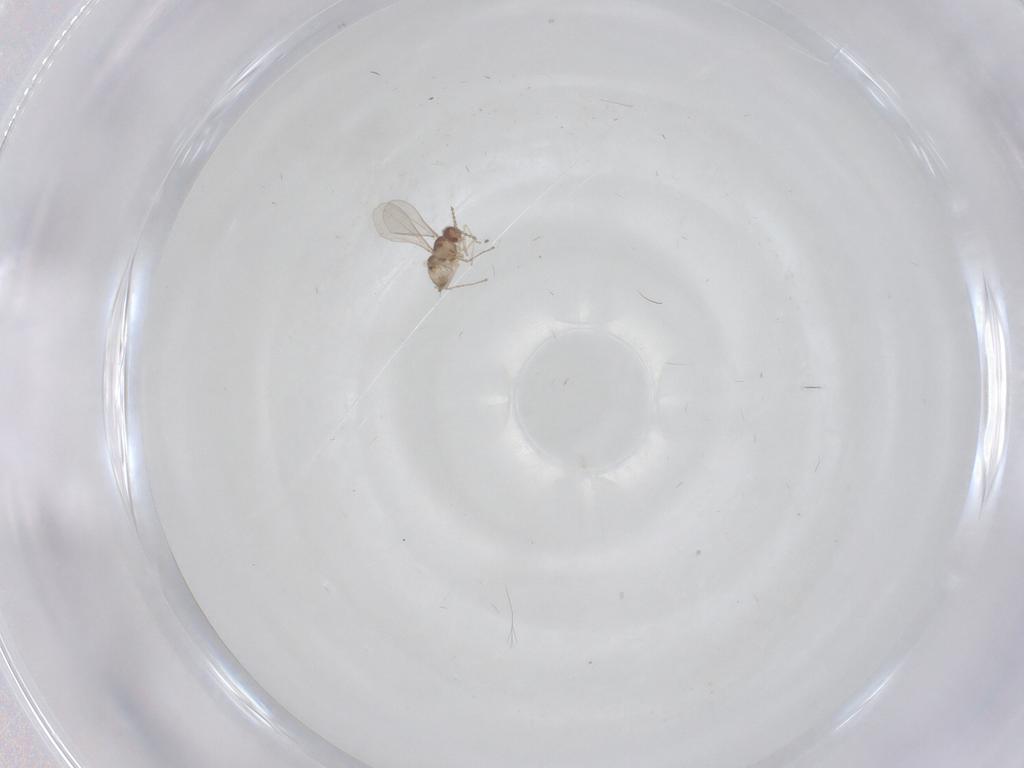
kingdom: Animalia
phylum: Arthropoda
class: Insecta
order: Diptera
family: Cecidomyiidae
